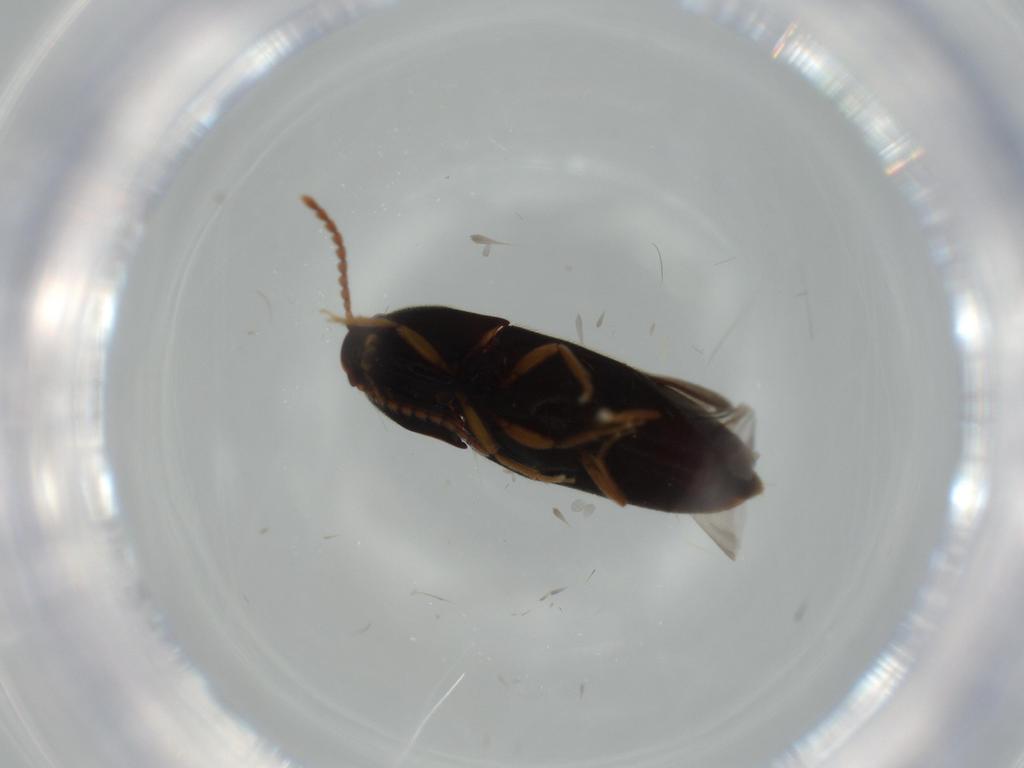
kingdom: Animalia
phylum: Arthropoda
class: Insecta
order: Coleoptera
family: Elateridae
